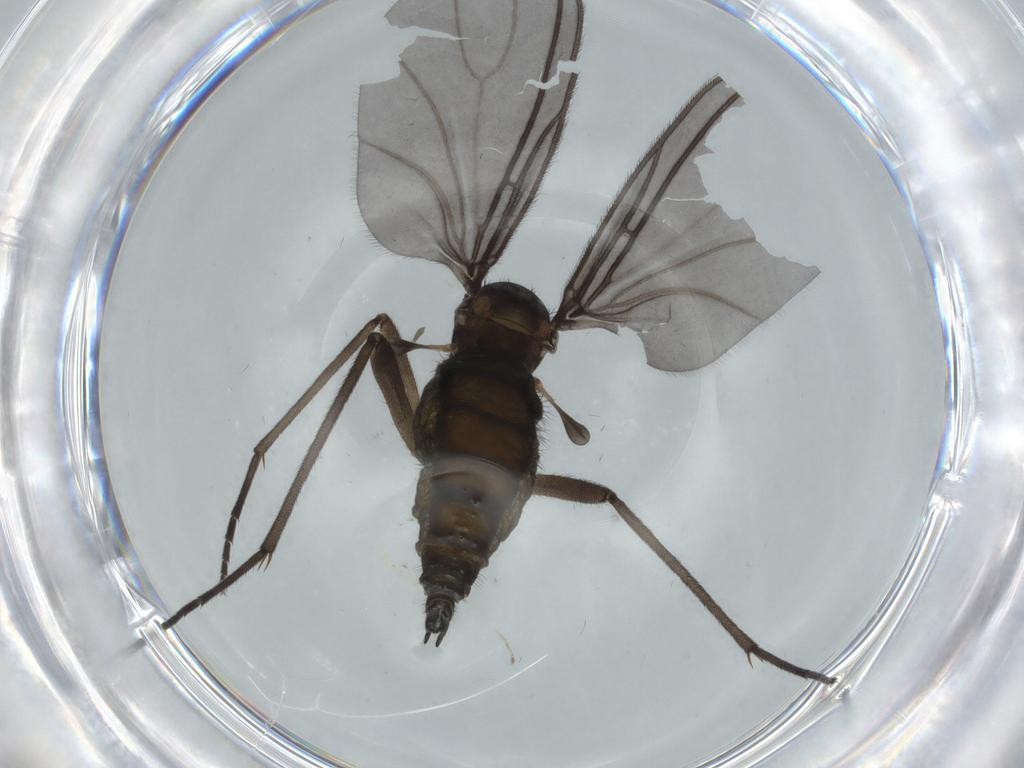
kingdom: Animalia
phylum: Arthropoda
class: Insecta
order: Diptera
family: Sciaridae
